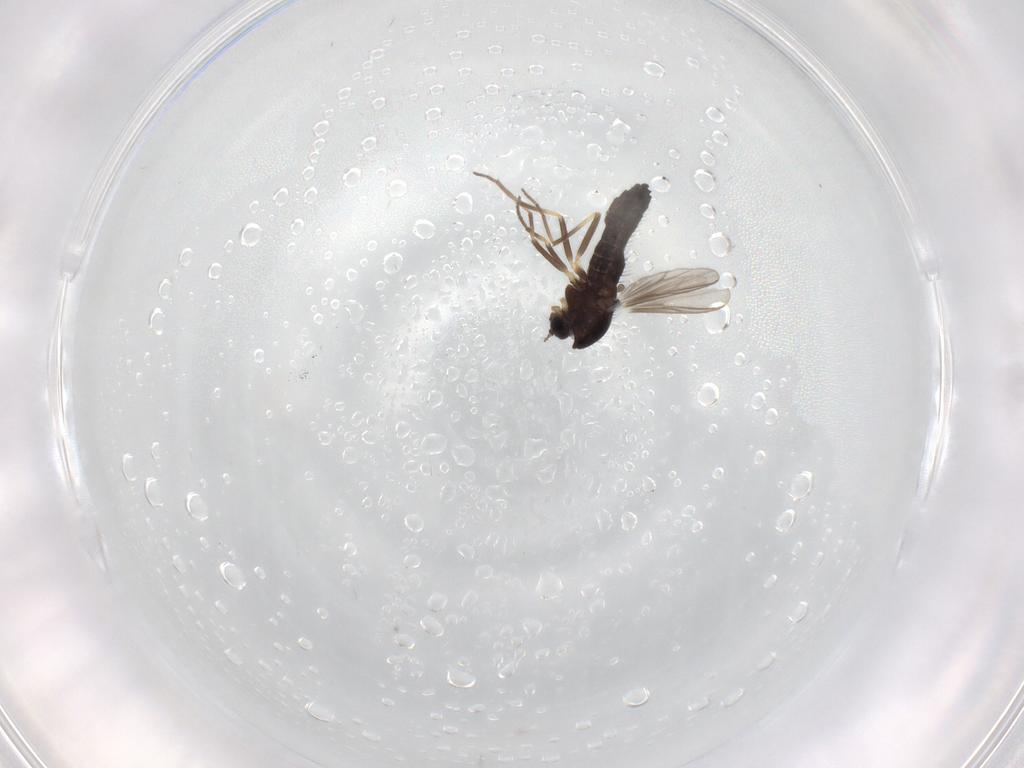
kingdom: Animalia
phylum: Arthropoda
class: Insecta
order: Diptera
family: Chironomidae
